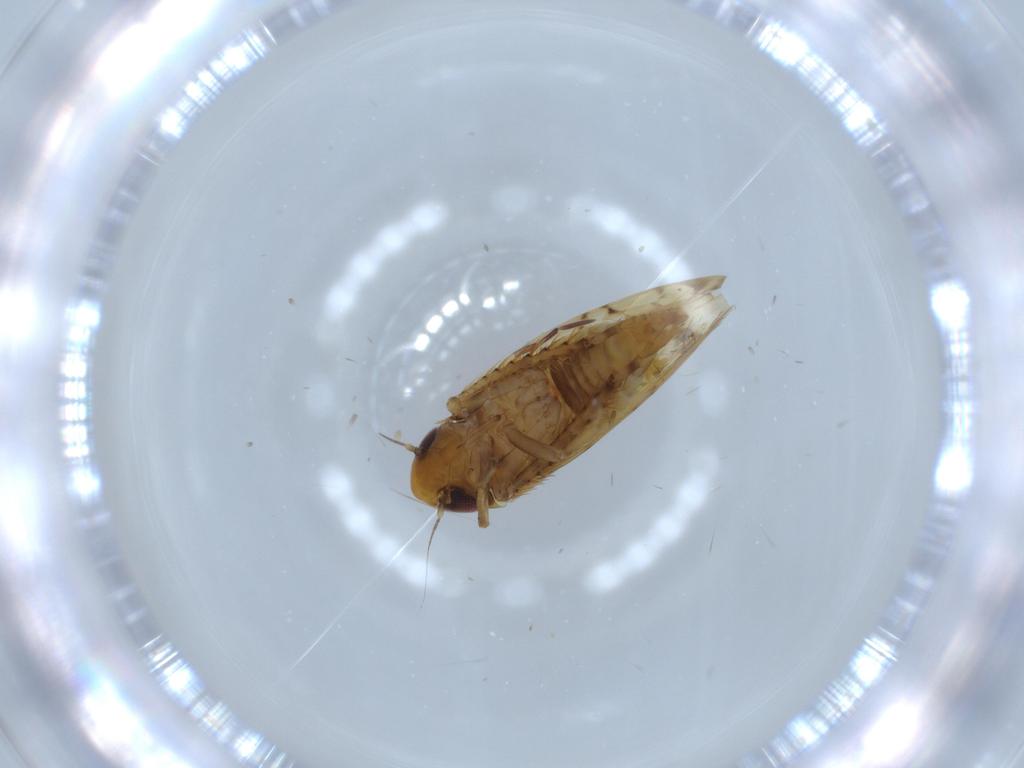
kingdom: Animalia
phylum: Arthropoda
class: Insecta
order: Hemiptera
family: Cicadellidae
